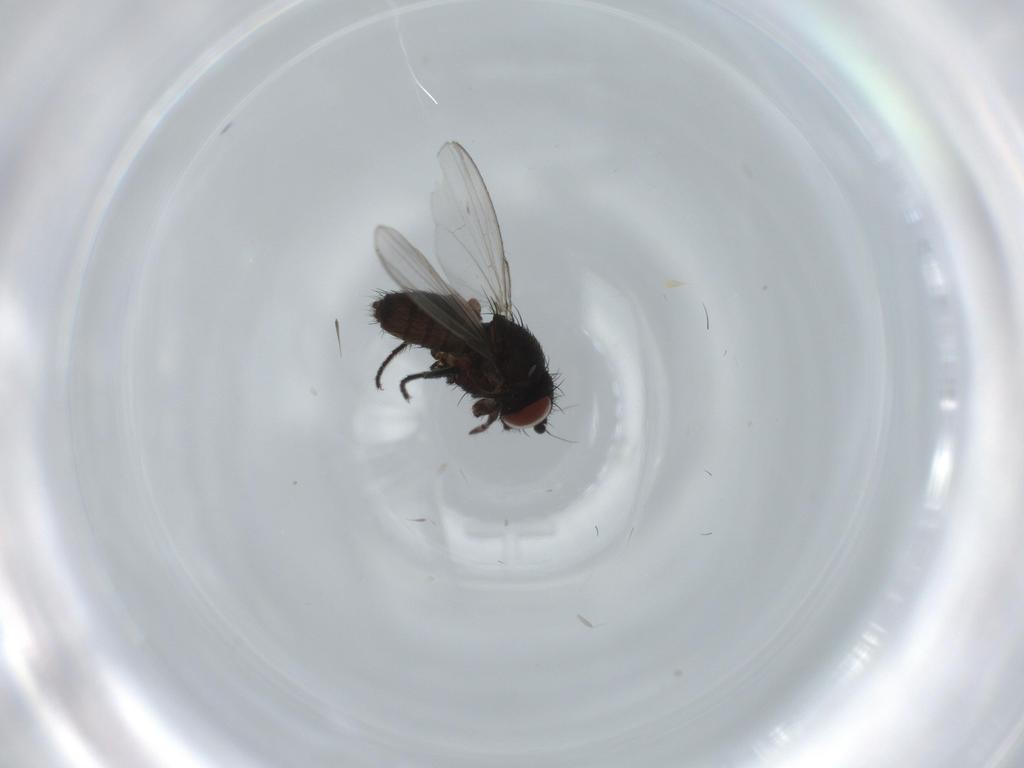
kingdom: Animalia
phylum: Arthropoda
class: Insecta
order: Diptera
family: Milichiidae
